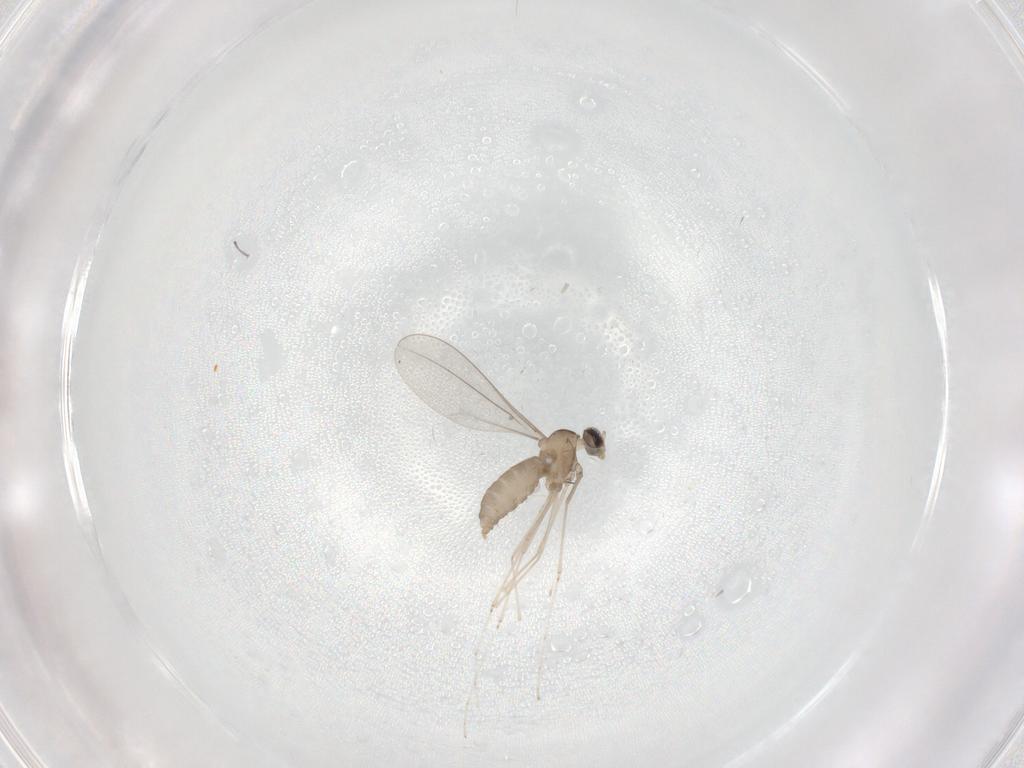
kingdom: Animalia
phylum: Arthropoda
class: Insecta
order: Diptera
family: Cecidomyiidae
